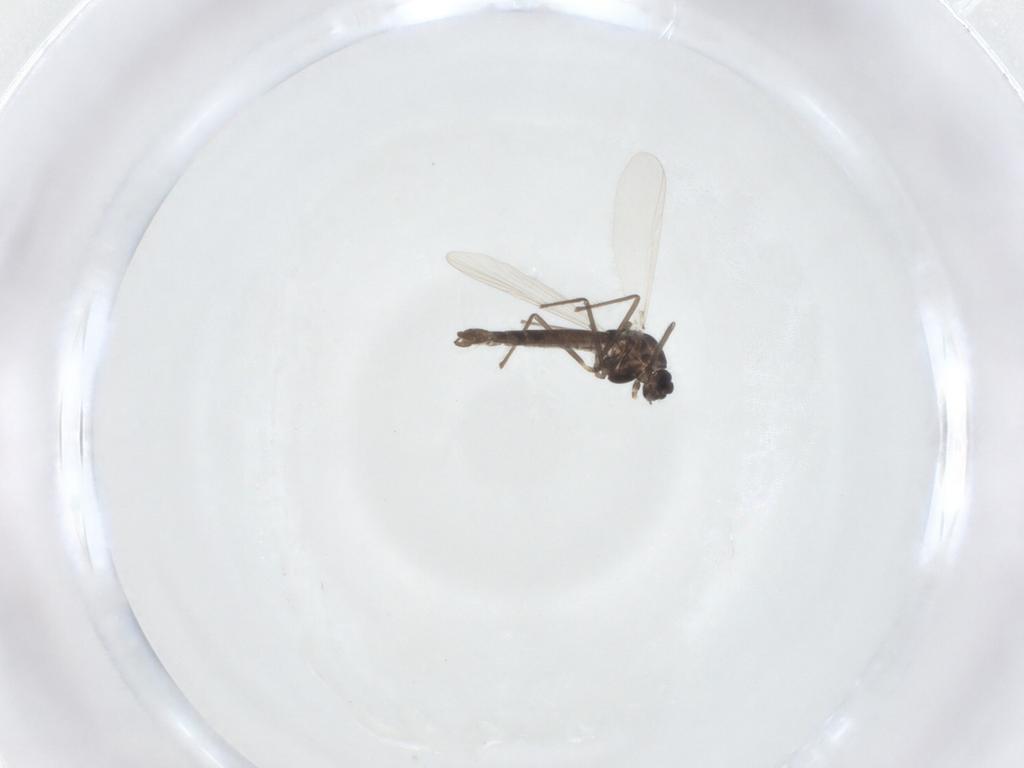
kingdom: Animalia
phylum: Arthropoda
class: Insecta
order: Diptera
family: Chironomidae
